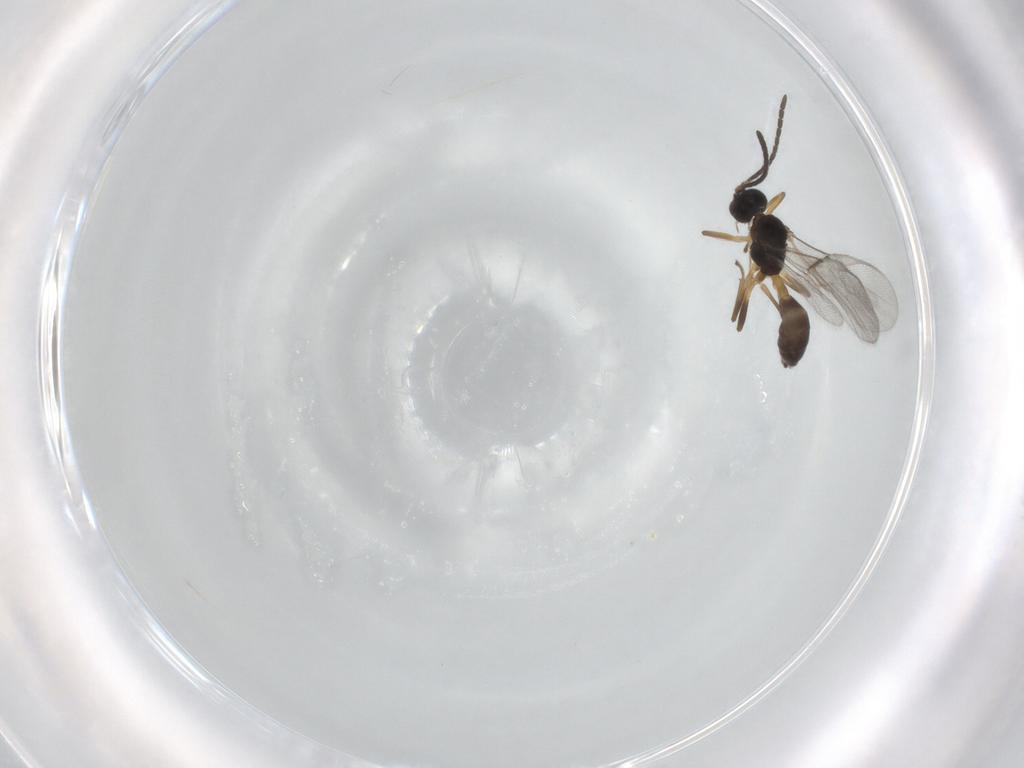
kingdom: Animalia
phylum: Arthropoda
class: Insecta
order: Hymenoptera
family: Braconidae
